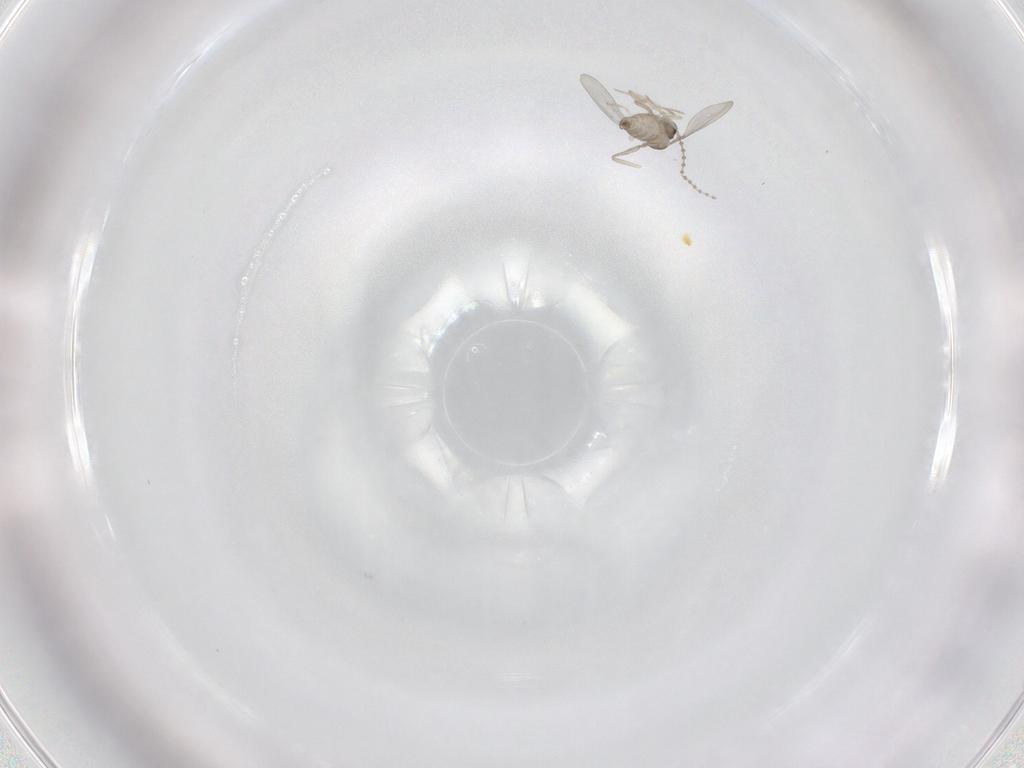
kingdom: Animalia
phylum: Arthropoda
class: Insecta
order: Diptera
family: Cecidomyiidae
